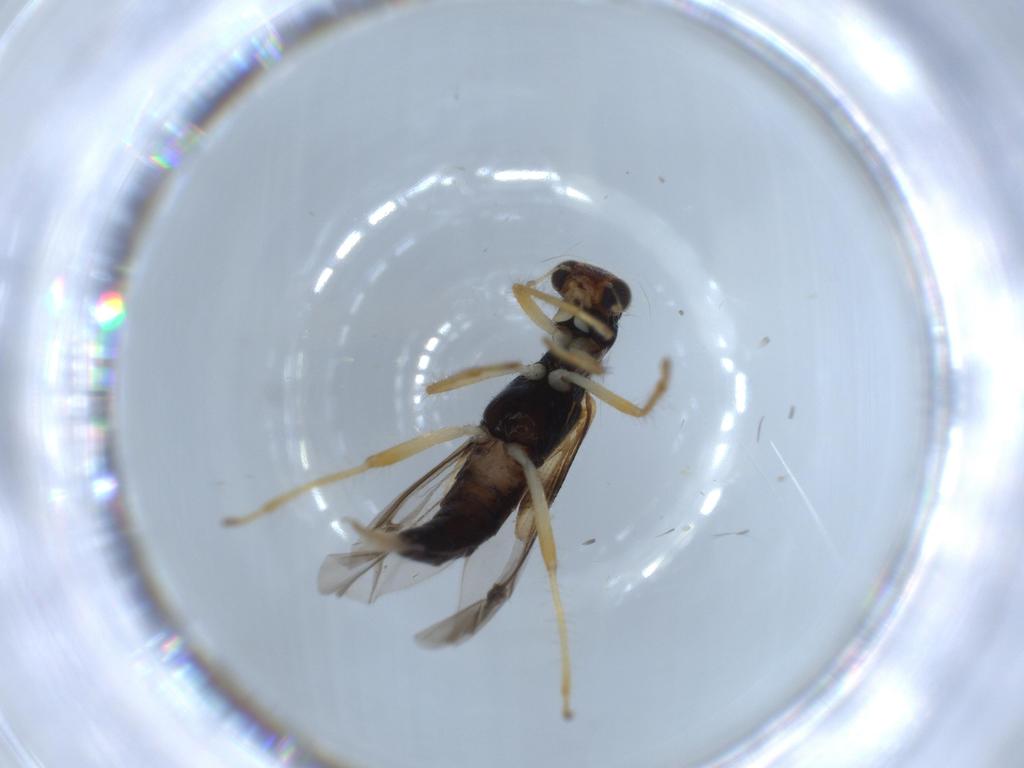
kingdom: Animalia
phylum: Arthropoda
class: Insecta
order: Coleoptera
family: Cleridae
